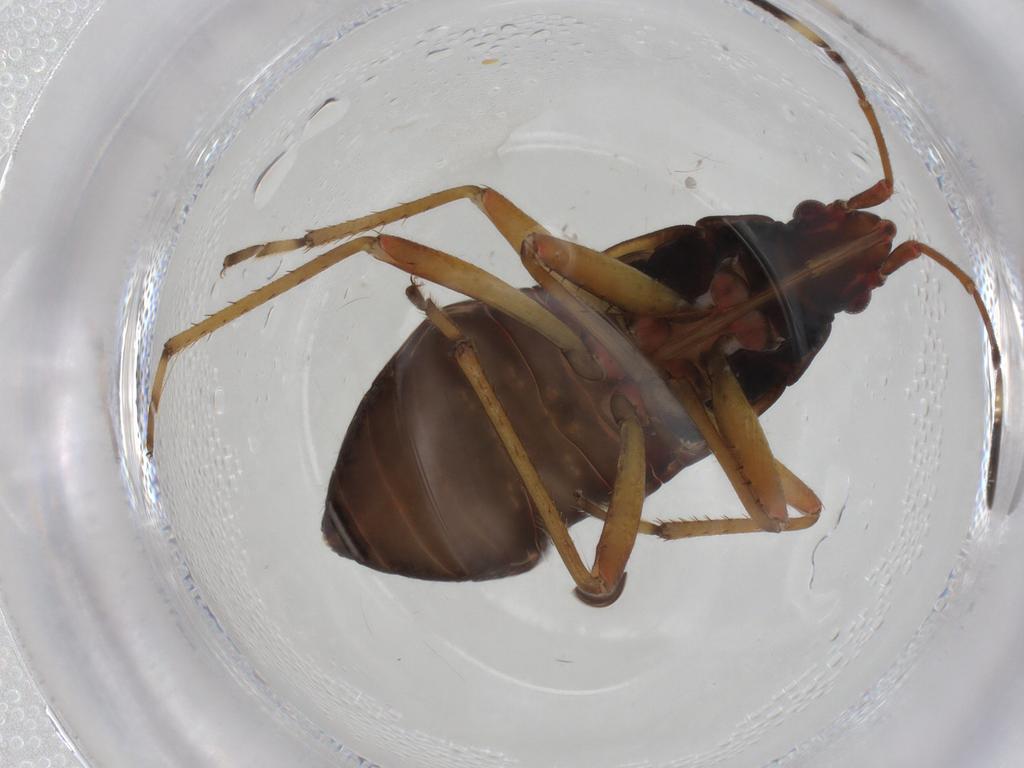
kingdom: Animalia
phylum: Arthropoda
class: Insecta
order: Hemiptera
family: Rhyparochromidae
